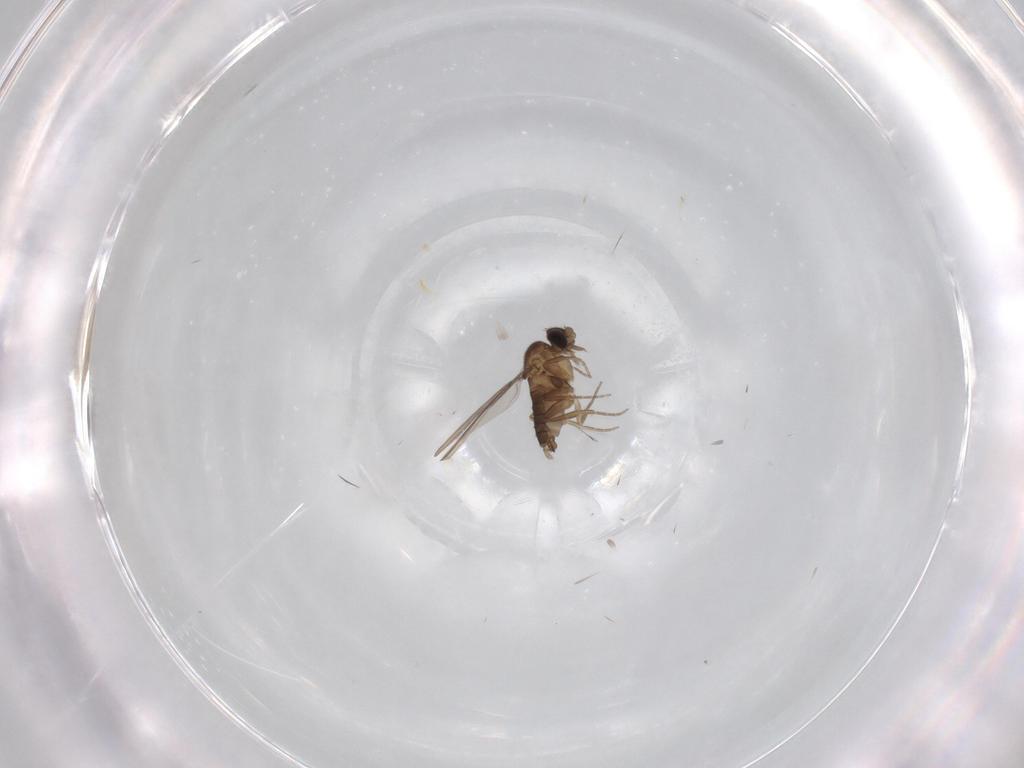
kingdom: Animalia
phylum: Arthropoda
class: Insecta
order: Diptera
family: Phoridae
